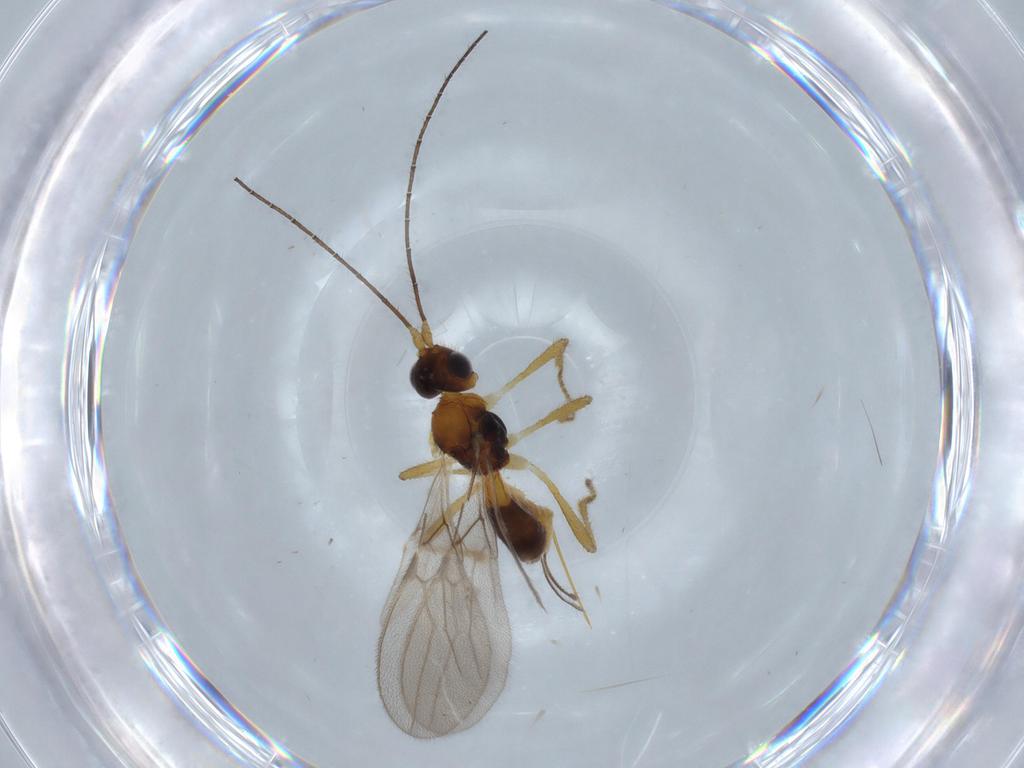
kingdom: Animalia
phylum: Arthropoda
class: Insecta
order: Hymenoptera
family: Braconidae
